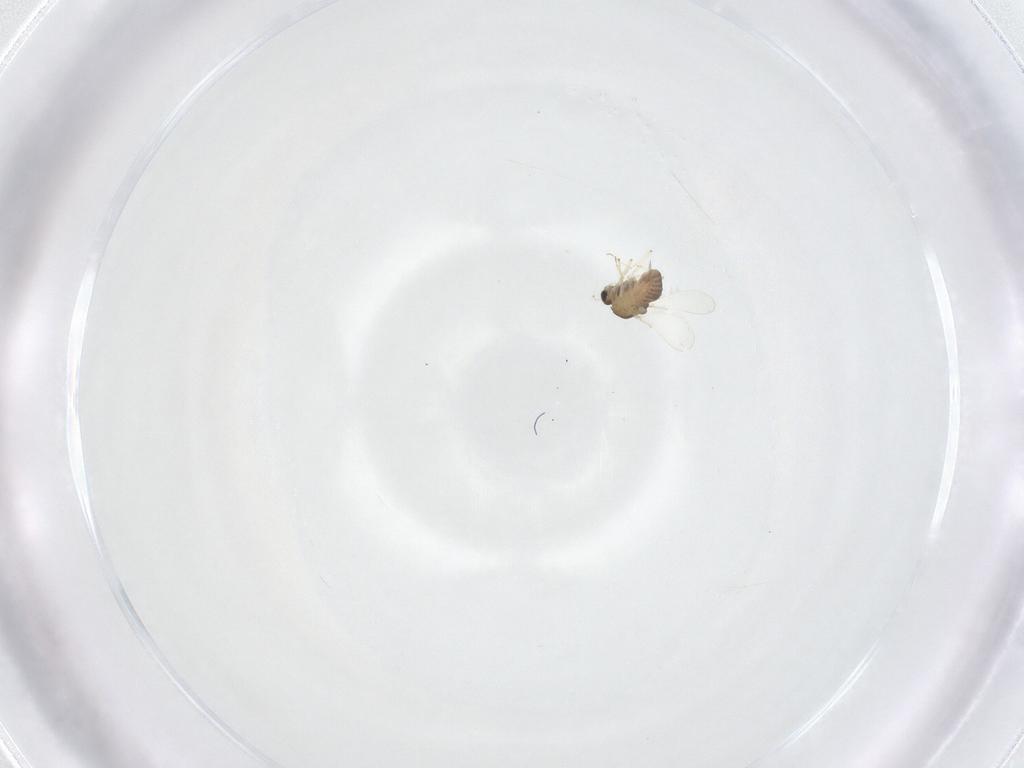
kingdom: Animalia
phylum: Arthropoda
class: Insecta
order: Diptera
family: Chironomidae
